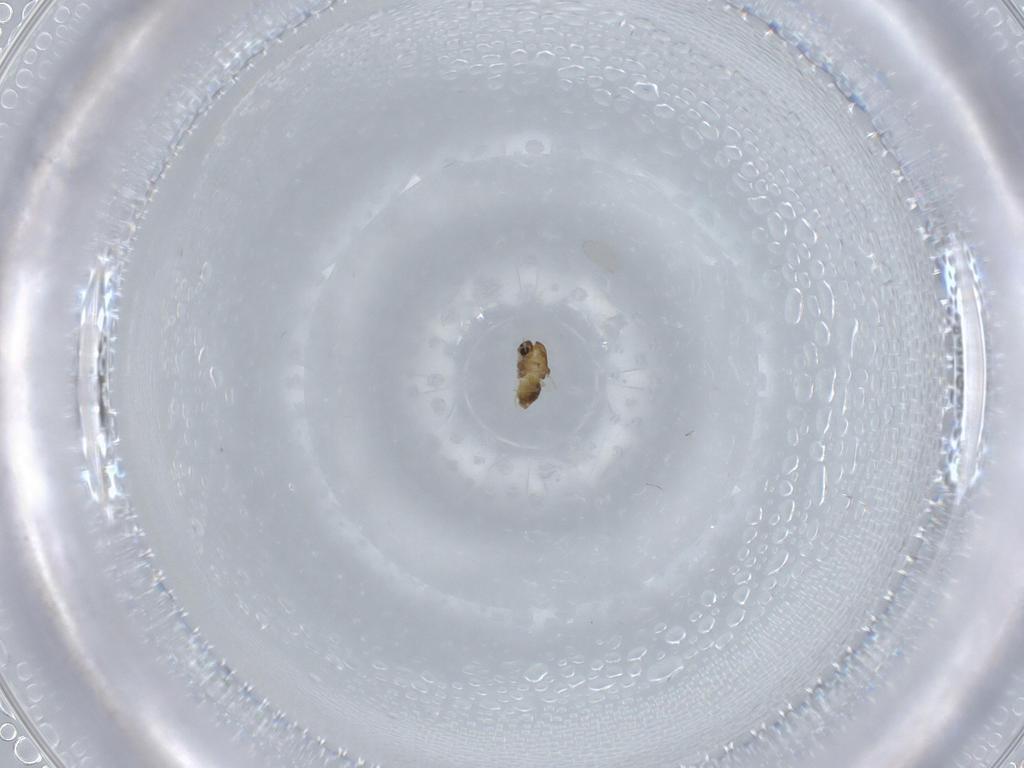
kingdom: Animalia
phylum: Arthropoda
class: Insecta
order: Diptera
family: Chironomidae
